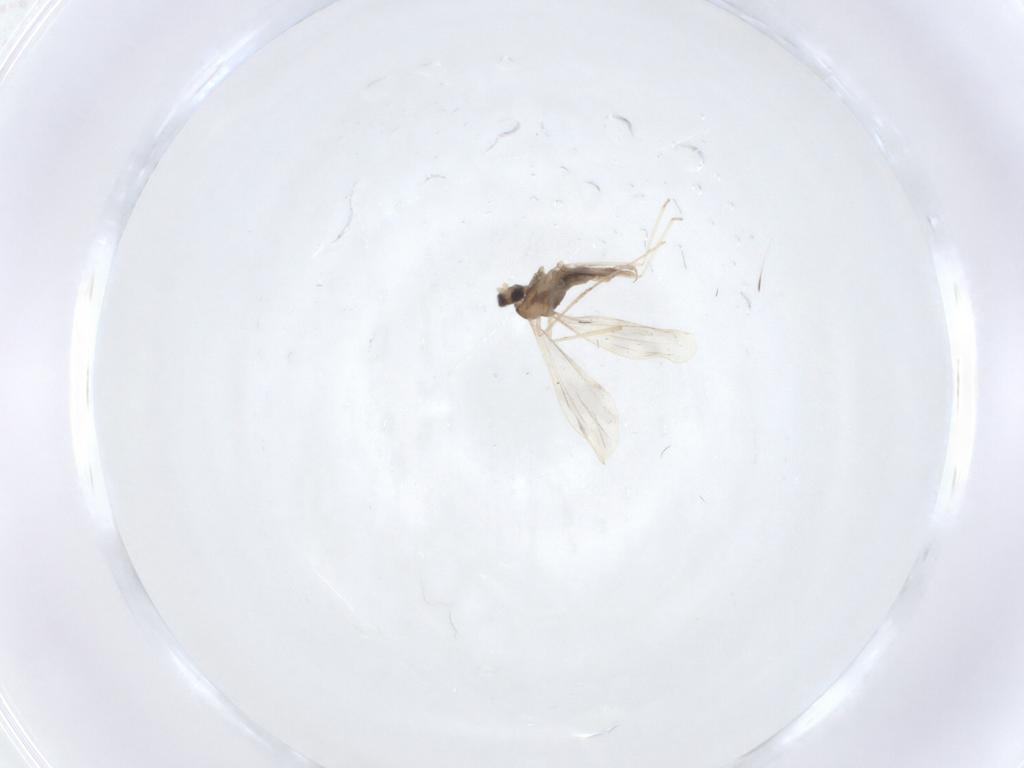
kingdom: Animalia
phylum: Arthropoda
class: Insecta
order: Diptera
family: Cecidomyiidae
